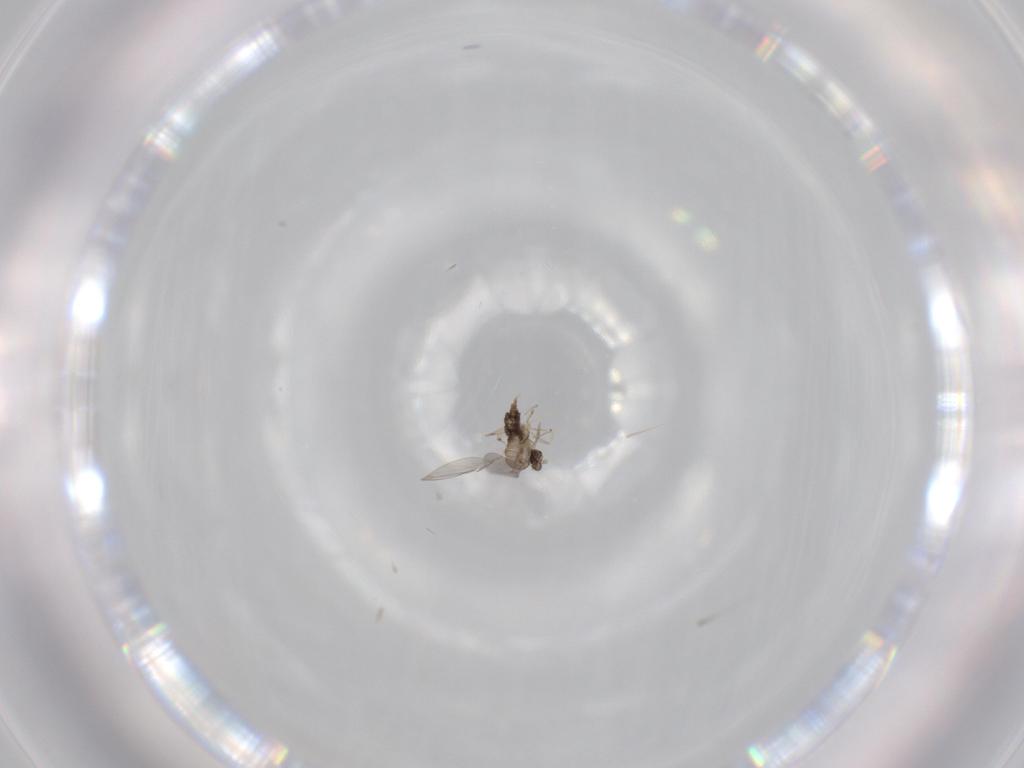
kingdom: Animalia
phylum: Arthropoda
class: Insecta
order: Diptera
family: Cecidomyiidae
